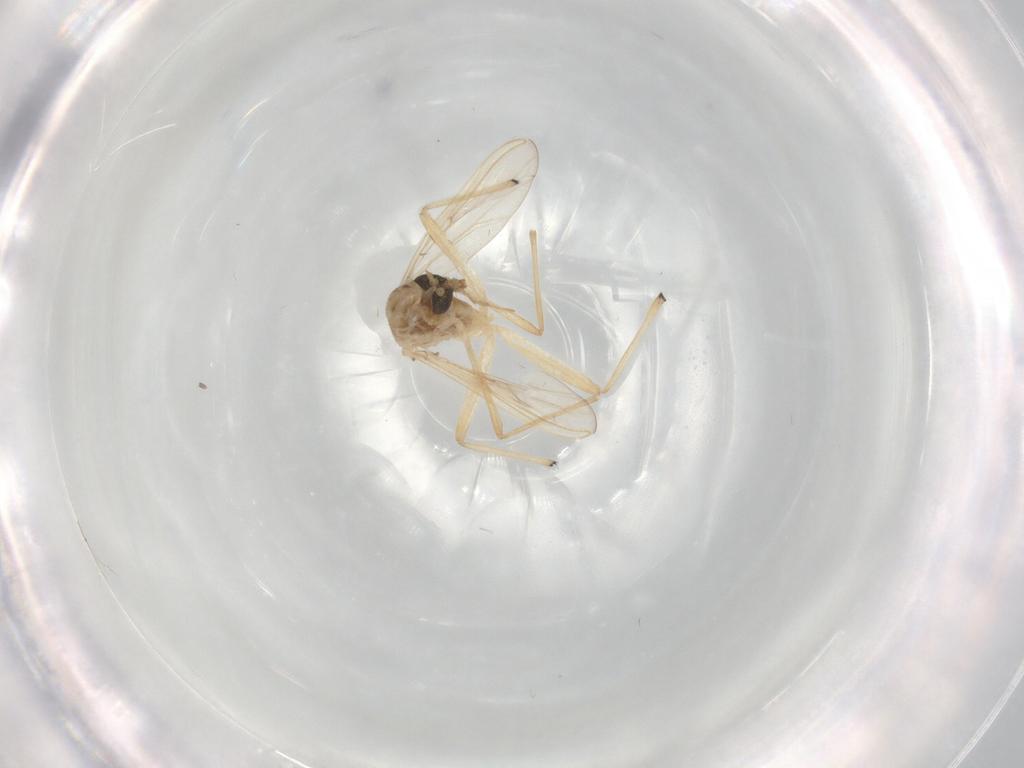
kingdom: Animalia
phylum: Arthropoda
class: Insecta
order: Diptera
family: Chironomidae
